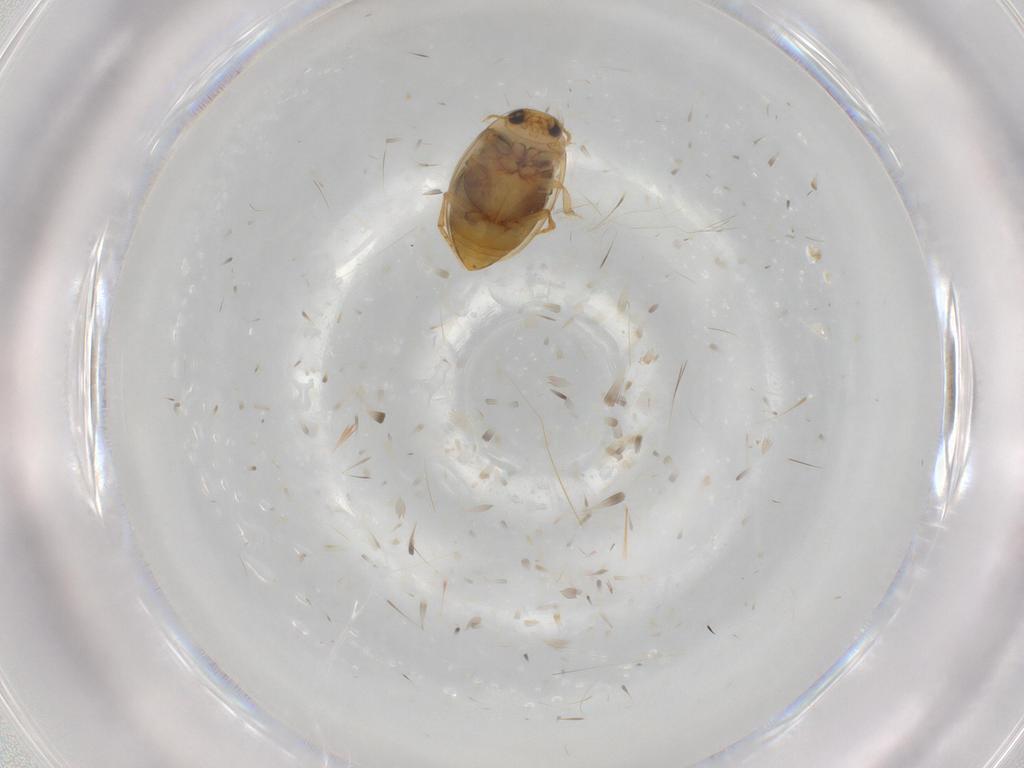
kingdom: Animalia
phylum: Arthropoda
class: Insecta
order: Coleoptera
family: Dytiscidae
